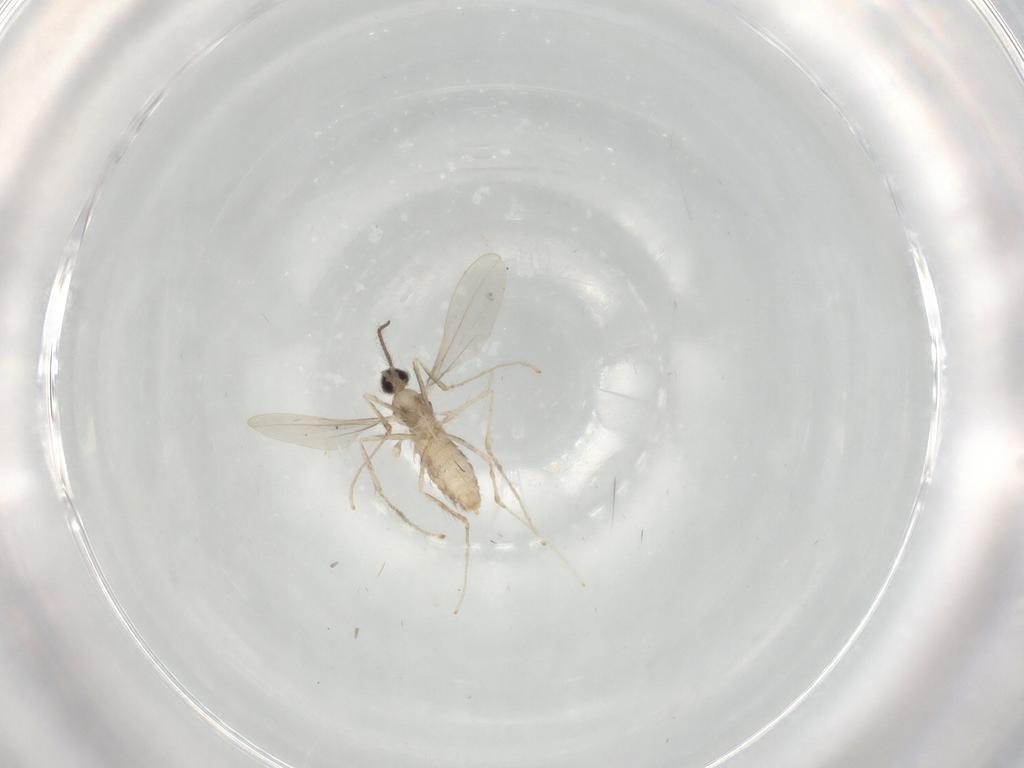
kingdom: Animalia
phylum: Arthropoda
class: Insecta
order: Diptera
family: Cecidomyiidae
